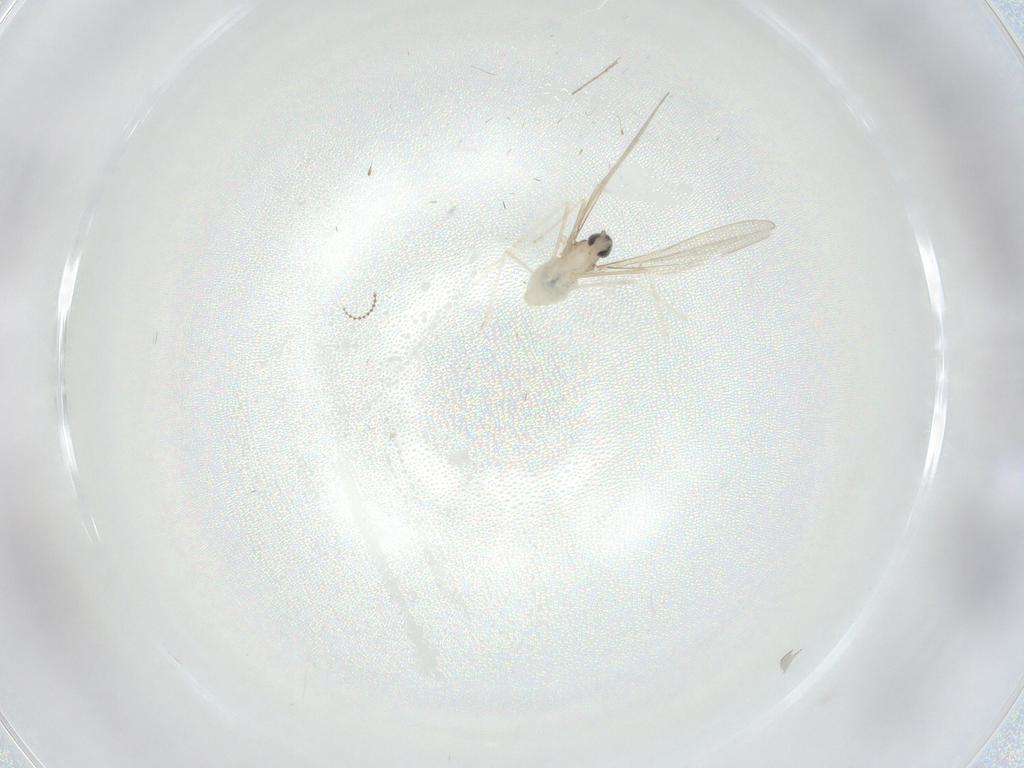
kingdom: Animalia
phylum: Arthropoda
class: Insecta
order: Diptera
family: Cecidomyiidae
